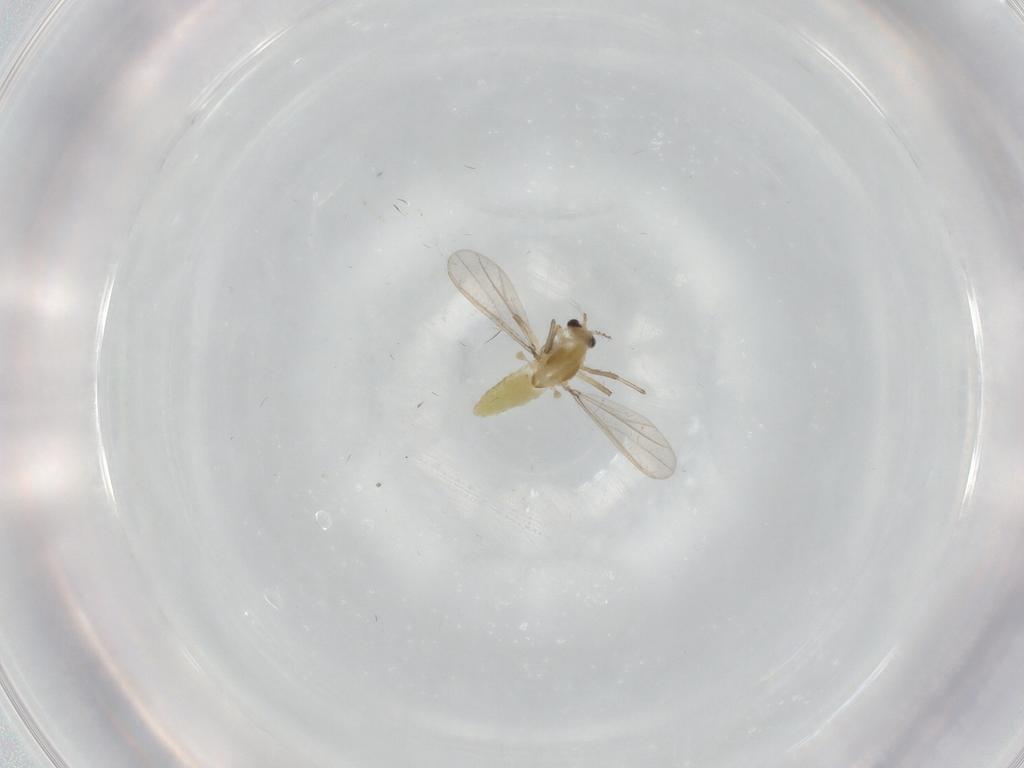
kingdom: Animalia
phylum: Arthropoda
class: Insecta
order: Diptera
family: Chironomidae
